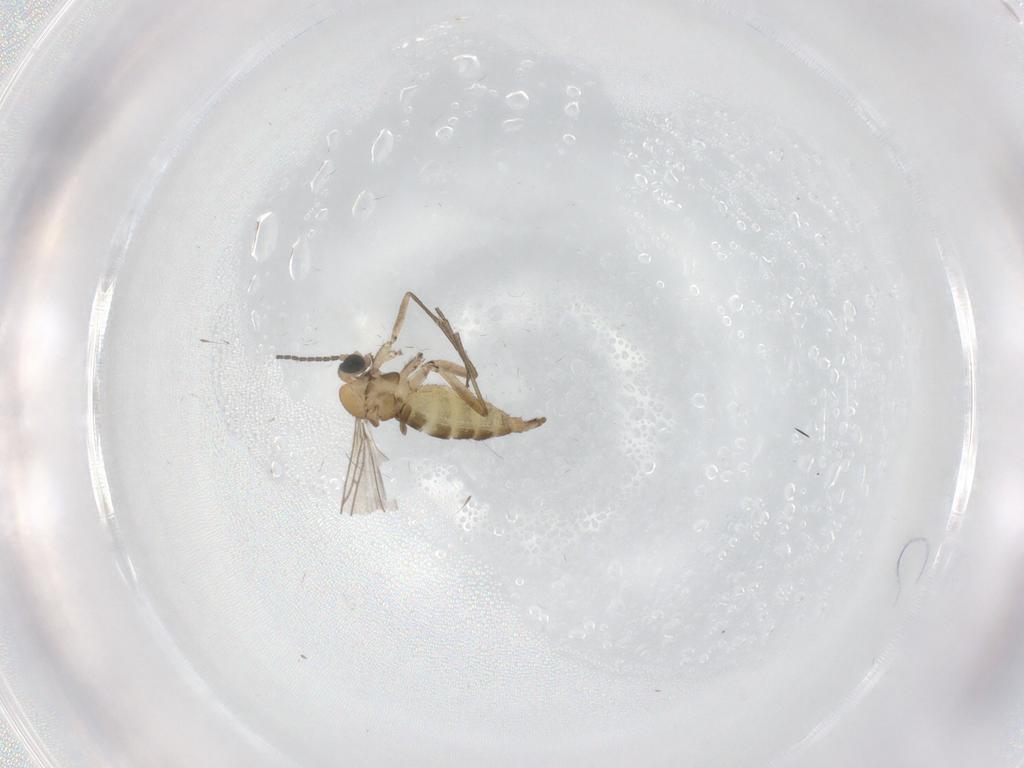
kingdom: Animalia
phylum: Arthropoda
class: Insecta
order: Diptera
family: Sciaridae
